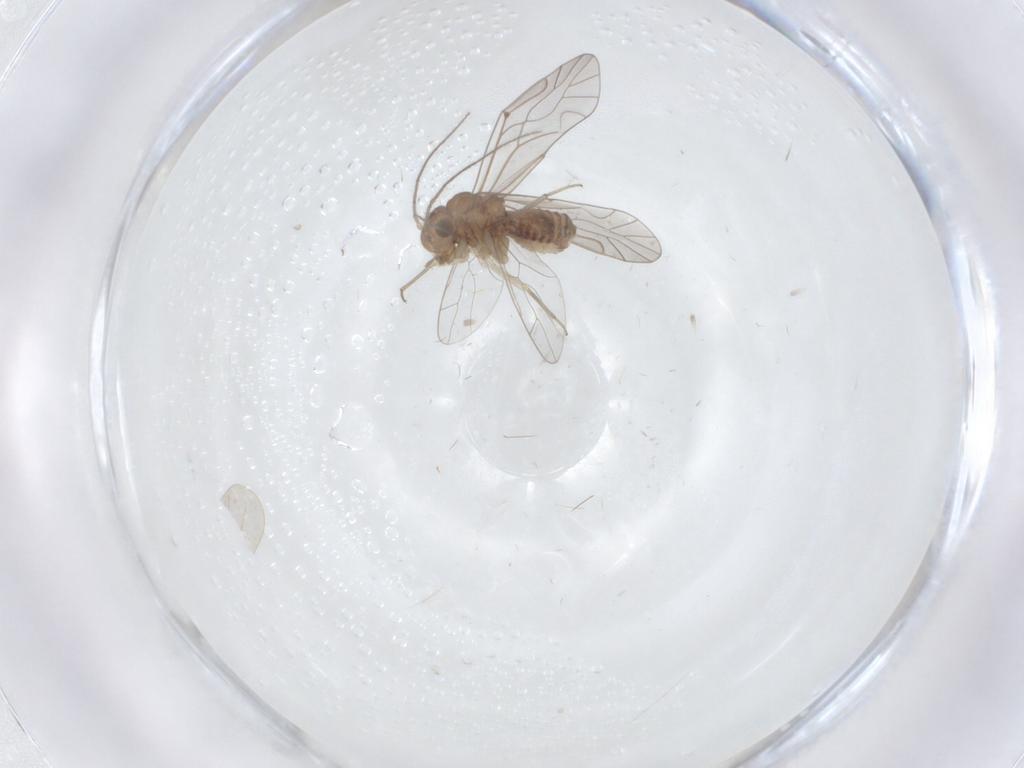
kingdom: Animalia
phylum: Arthropoda
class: Insecta
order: Psocodea
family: Lachesillidae
